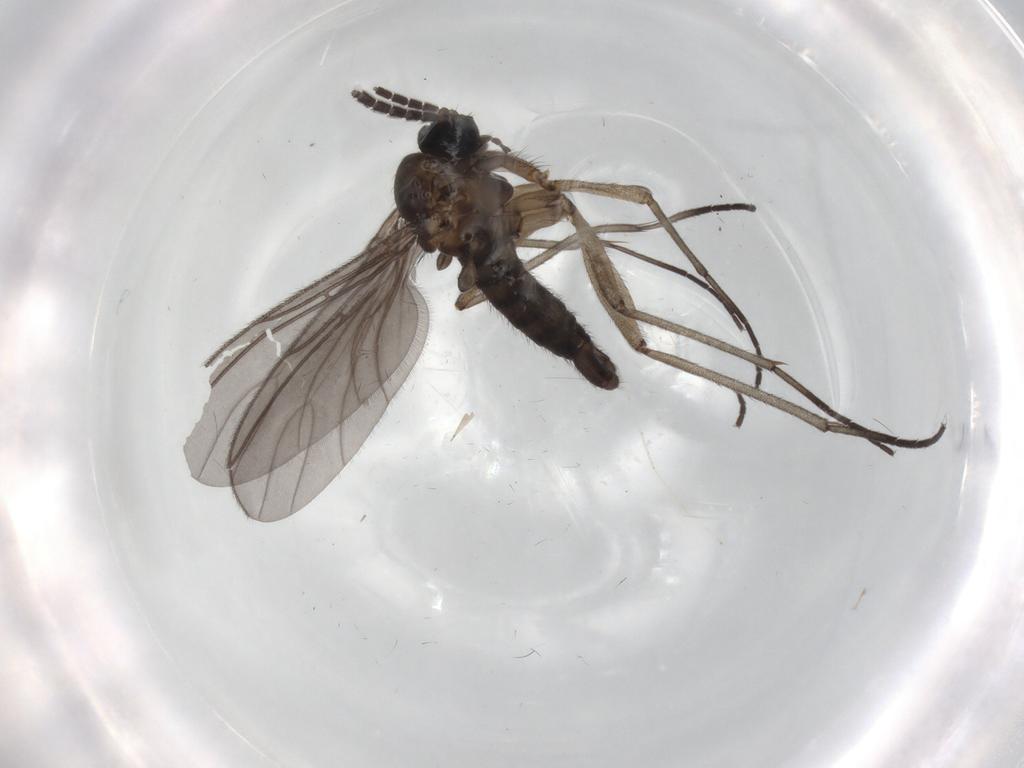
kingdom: Animalia
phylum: Arthropoda
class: Insecta
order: Diptera
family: Sciaridae
